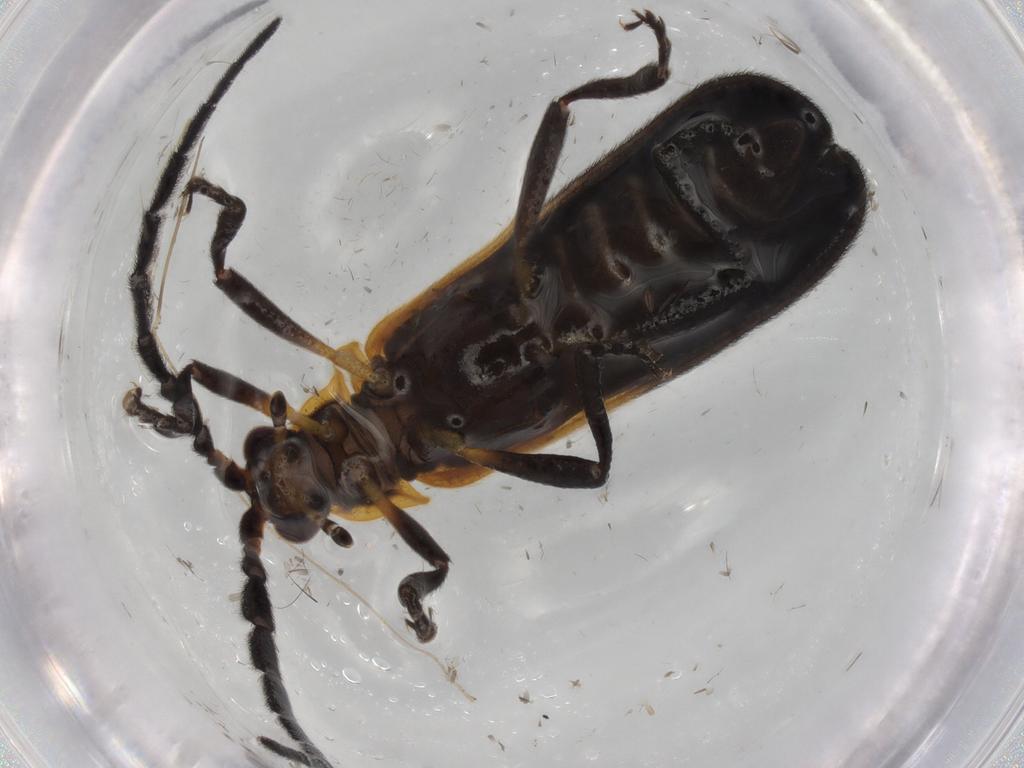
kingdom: Animalia
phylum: Arthropoda
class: Insecta
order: Coleoptera
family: Lycidae
